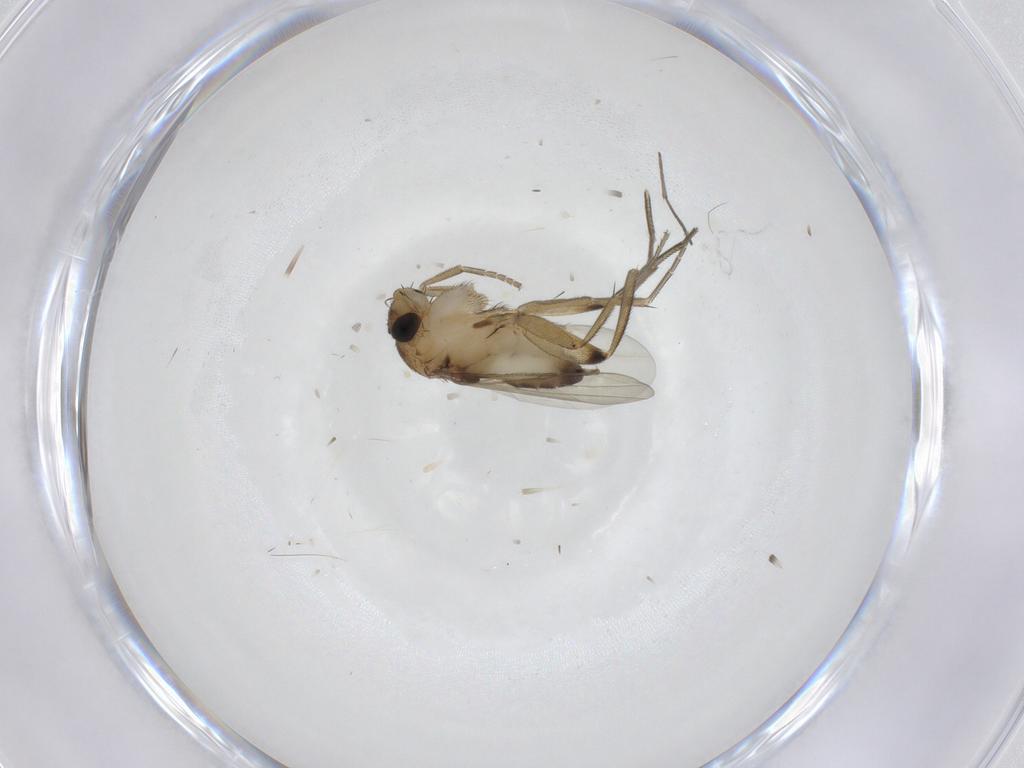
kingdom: Animalia
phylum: Arthropoda
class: Insecta
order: Diptera
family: Phoridae
